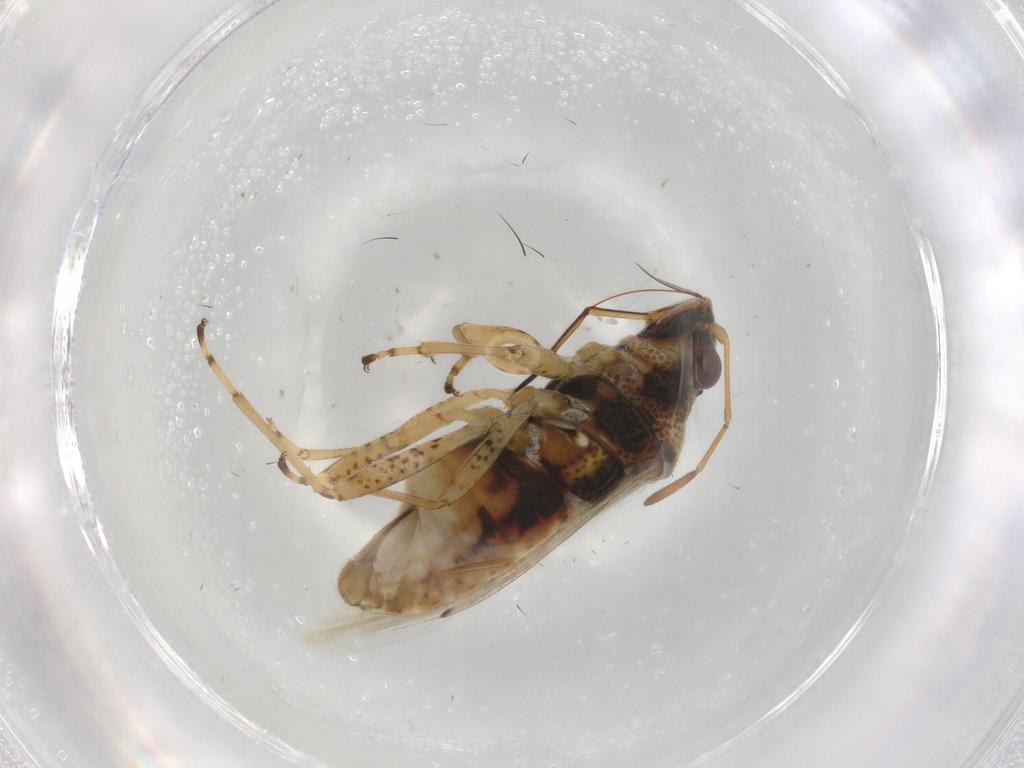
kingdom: Animalia
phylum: Arthropoda
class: Insecta
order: Hemiptera
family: Lygaeidae
